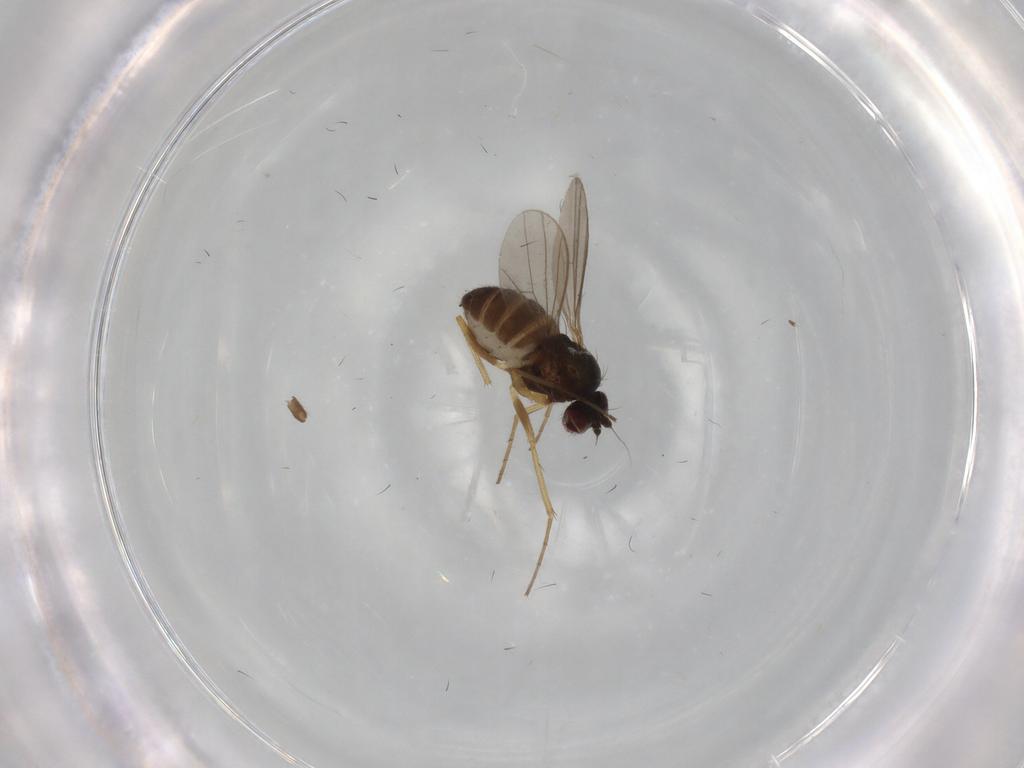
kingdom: Animalia
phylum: Arthropoda
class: Insecta
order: Diptera
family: Dolichopodidae
